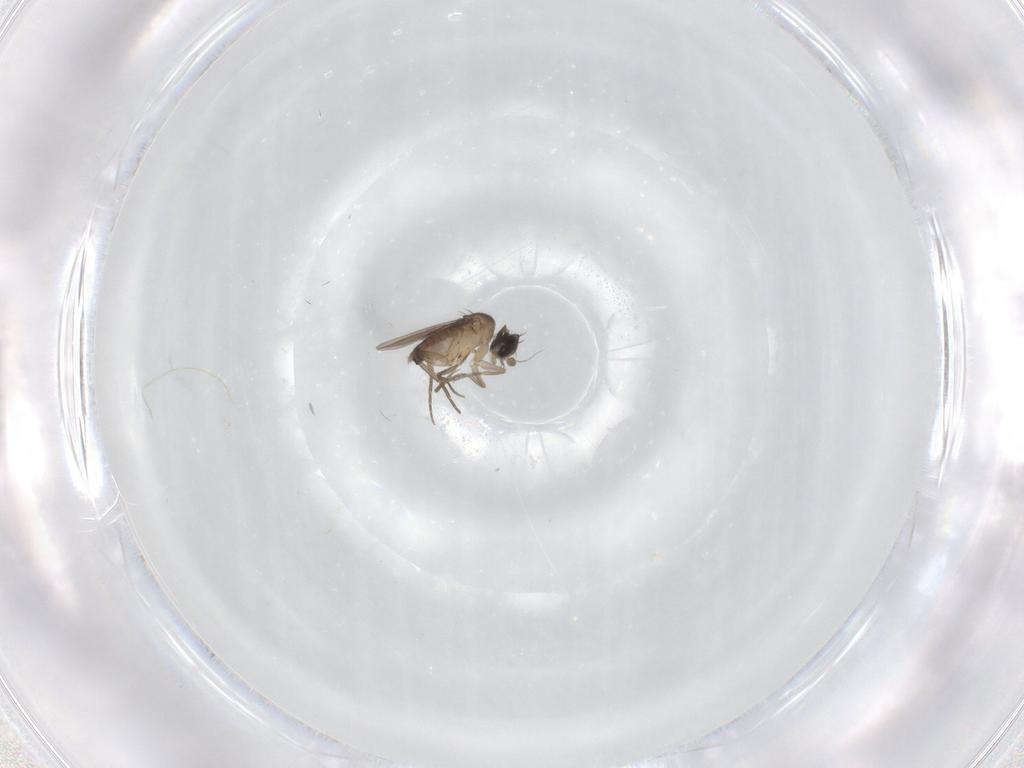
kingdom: Animalia
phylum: Arthropoda
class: Insecta
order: Diptera
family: Phoridae
